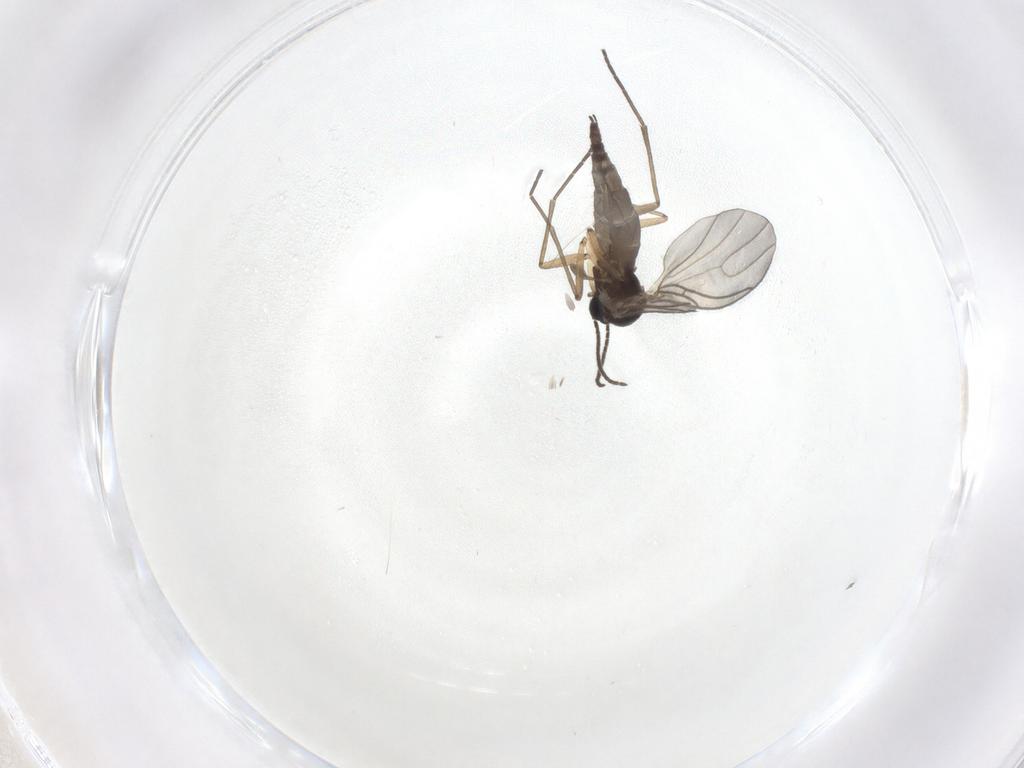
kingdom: Animalia
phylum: Arthropoda
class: Insecta
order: Diptera
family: Sciaridae
